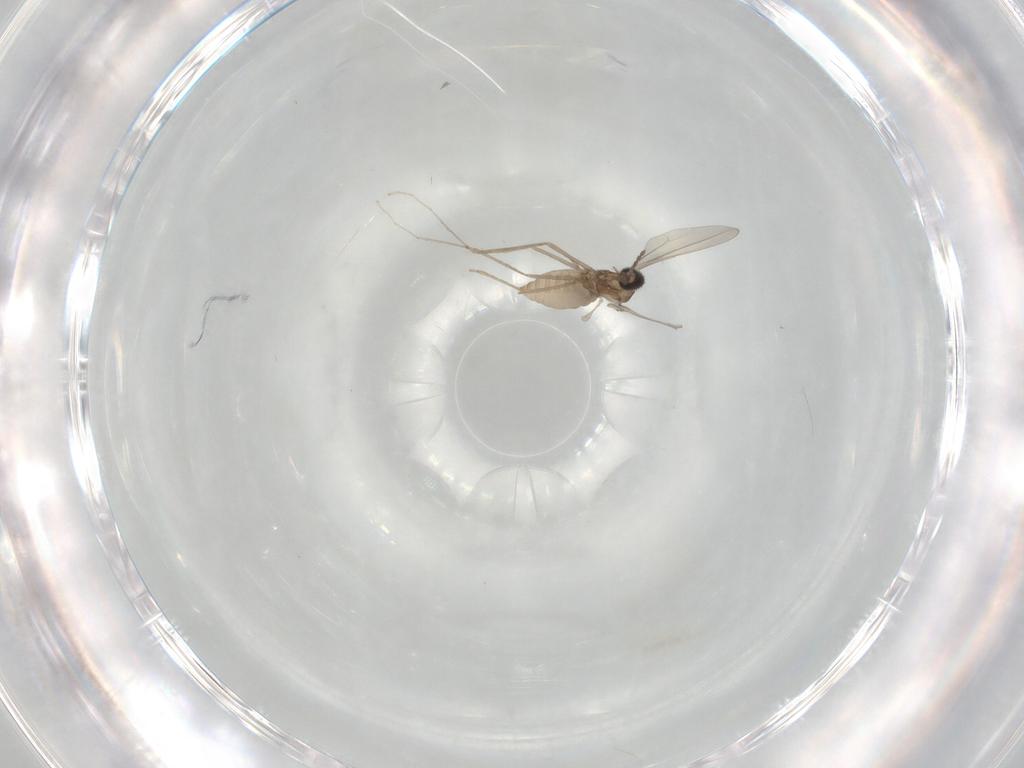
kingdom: Animalia
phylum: Arthropoda
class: Insecta
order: Diptera
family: Cecidomyiidae
